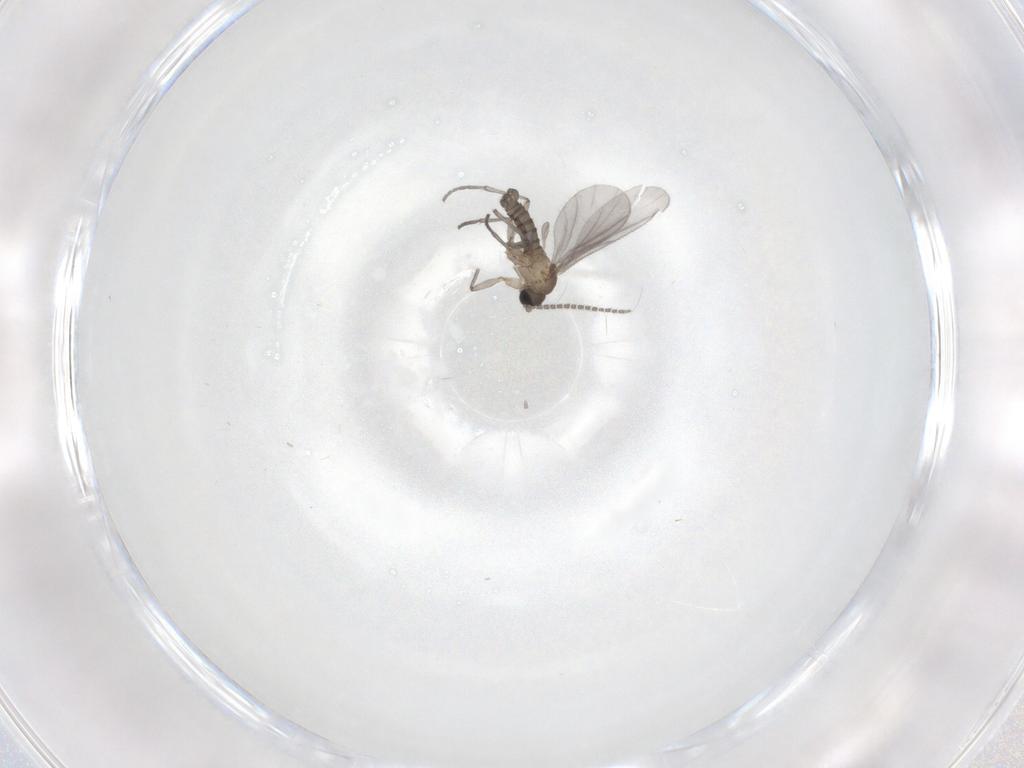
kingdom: Animalia
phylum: Arthropoda
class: Insecta
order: Diptera
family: Sciaridae
